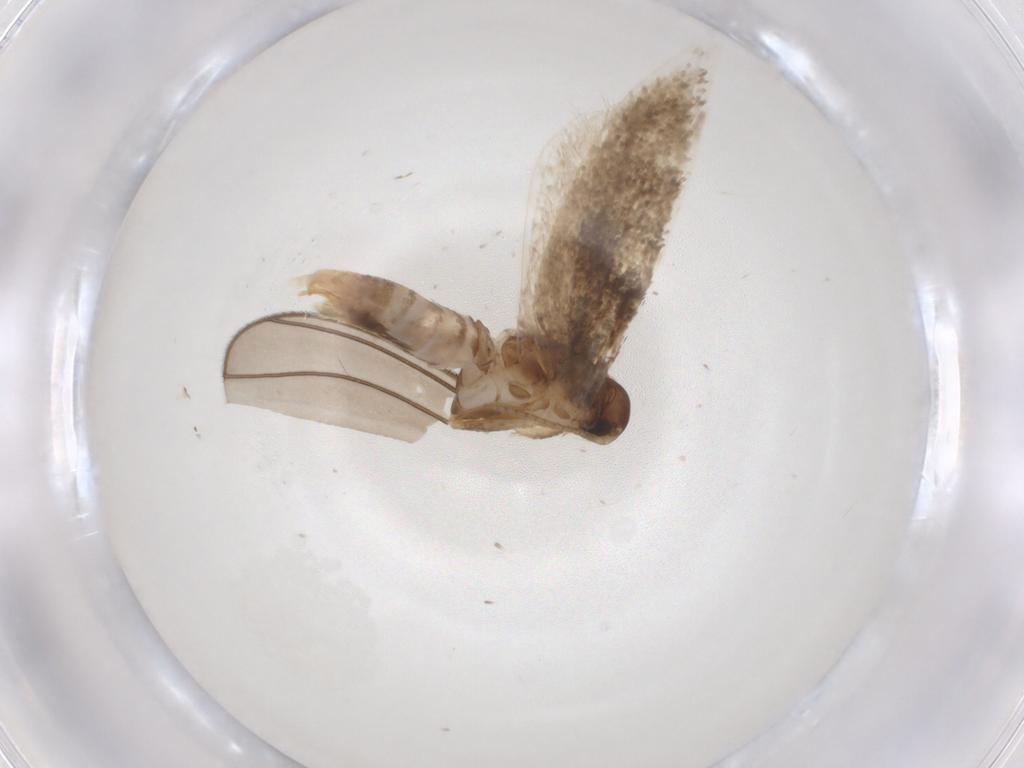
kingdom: Animalia
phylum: Arthropoda
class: Insecta
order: Lepidoptera
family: Gelechiidae
